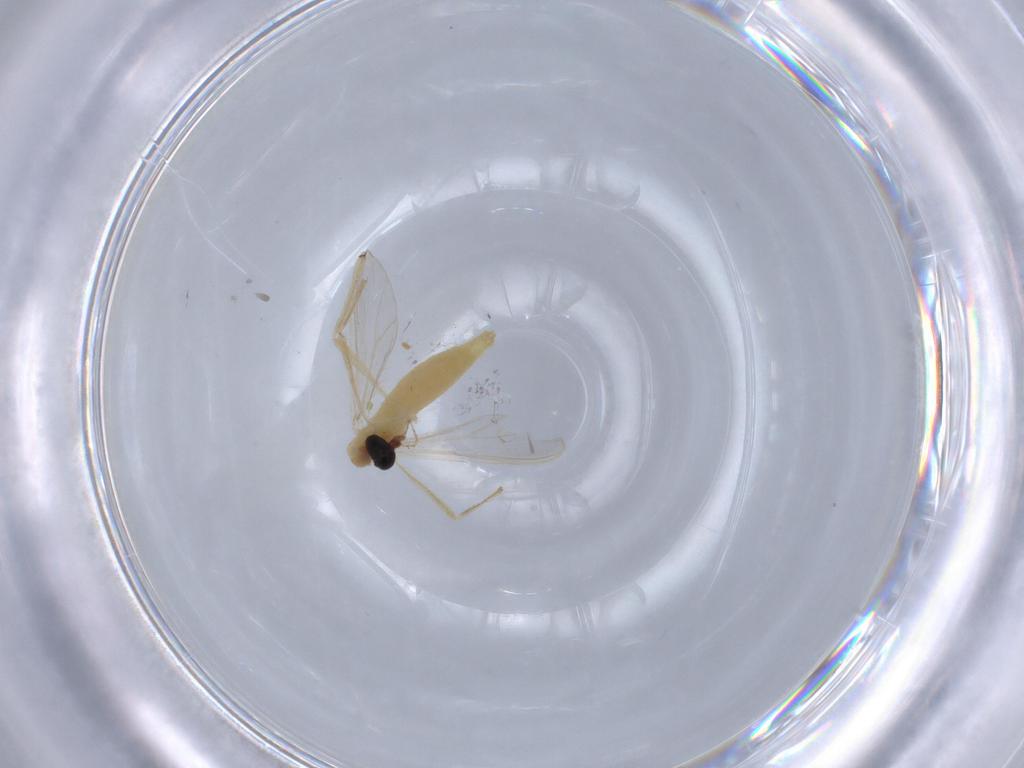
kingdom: Animalia
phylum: Arthropoda
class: Insecta
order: Diptera
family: Chironomidae
